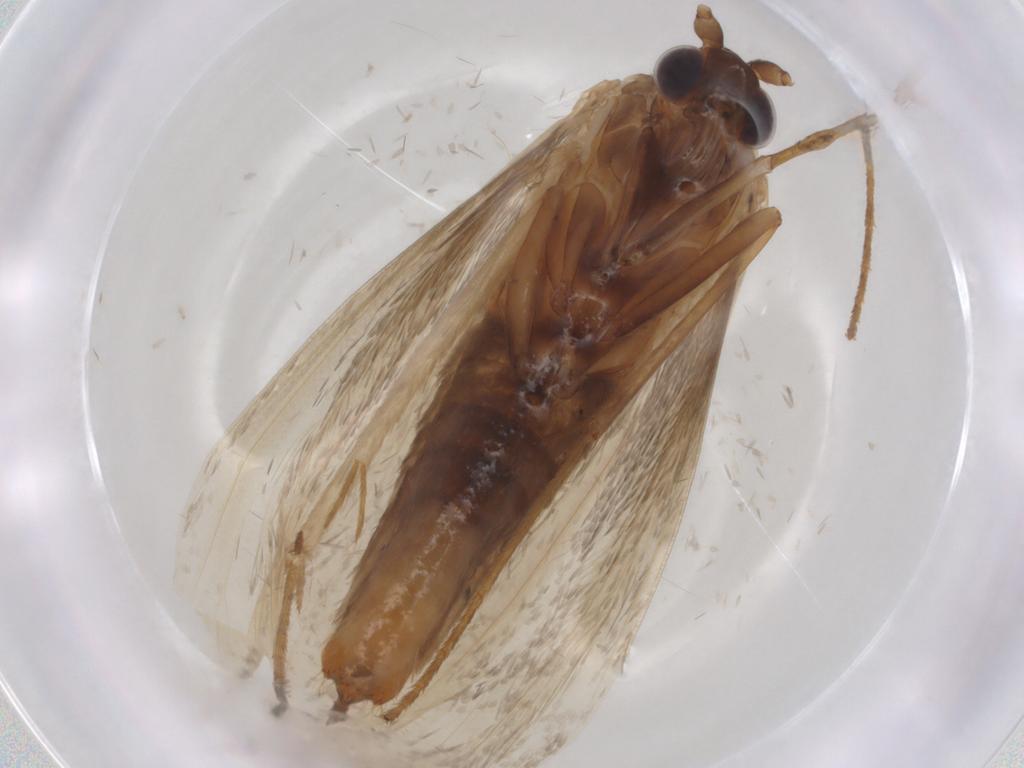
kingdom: Animalia
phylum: Arthropoda
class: Insecta
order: Lepidoptera
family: Adelidae
